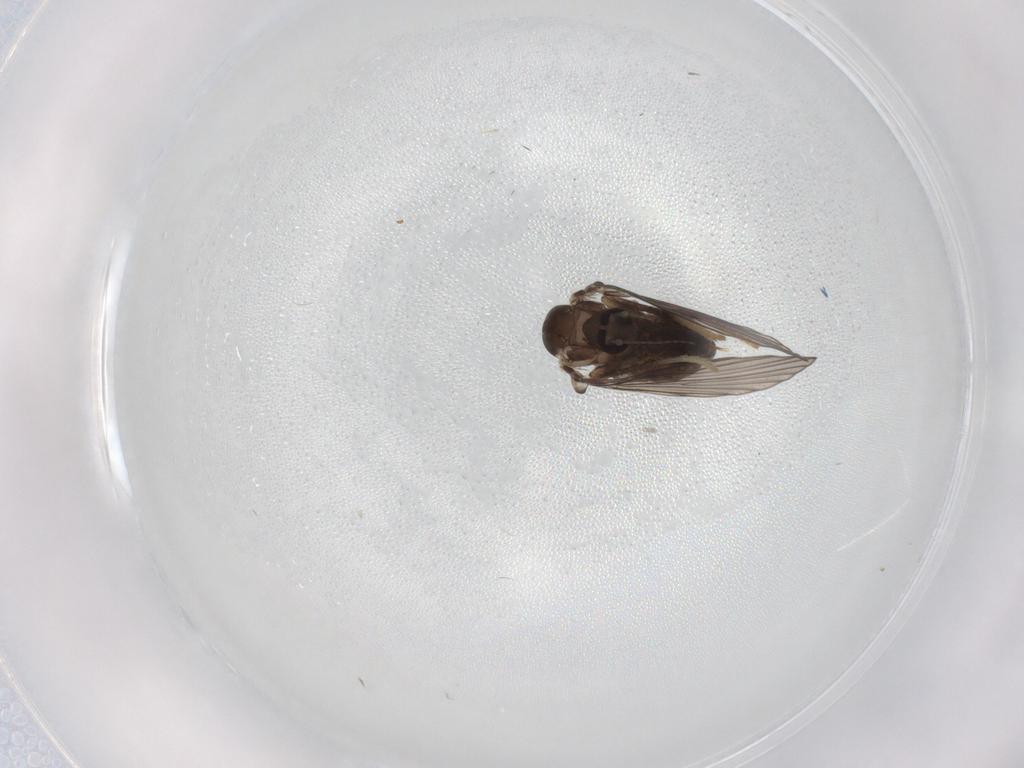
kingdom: Animalia
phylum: Arthropoda
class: Insecta
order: Diptera
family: Psychodidae
